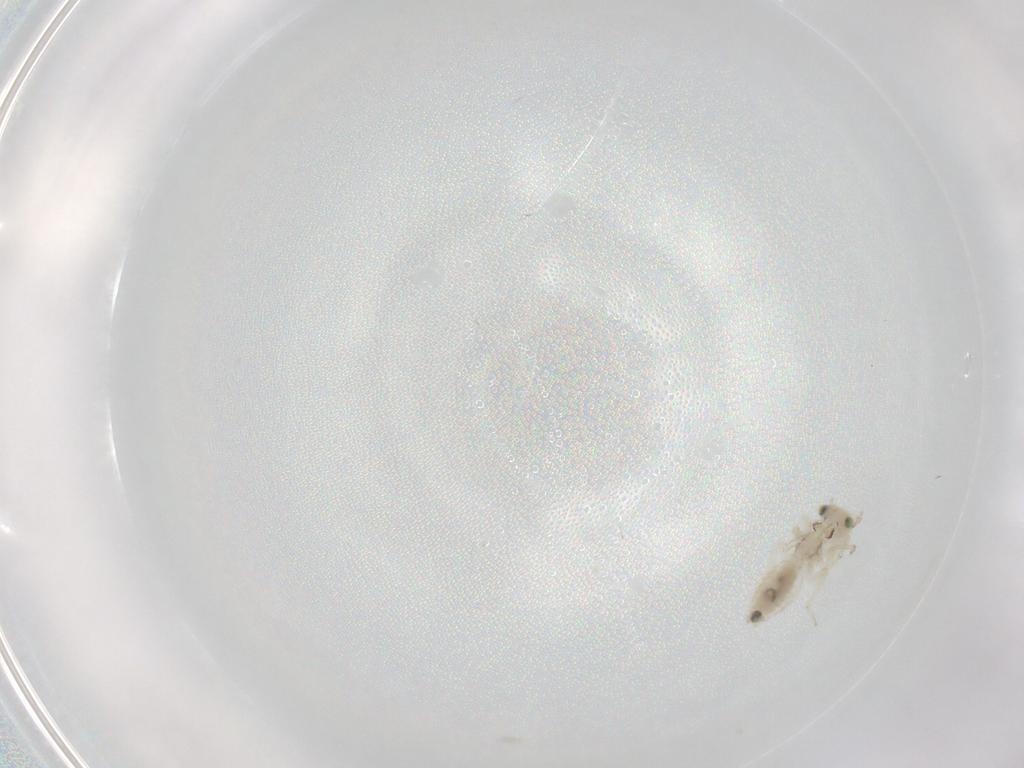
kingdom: Animalia
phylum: Arthropoda
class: Insecta
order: Psocodea
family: Lepidopsocidae
